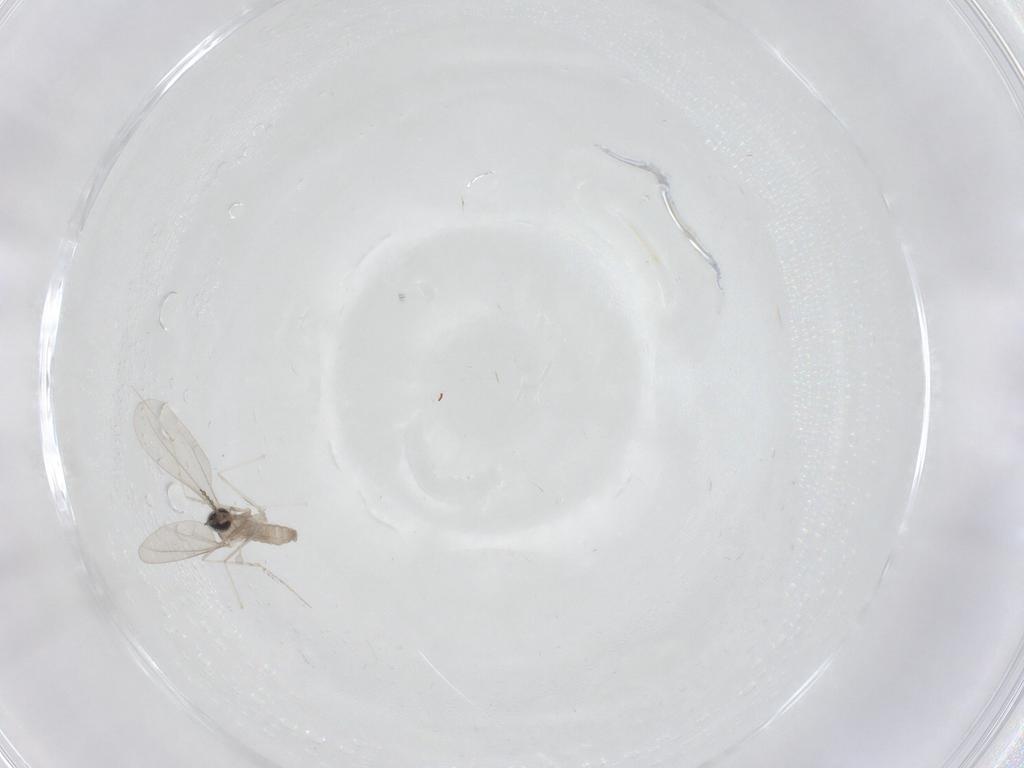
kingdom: Animalia
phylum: Arthropoda
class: Insecta
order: Diptera
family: Cecidomyiidae
